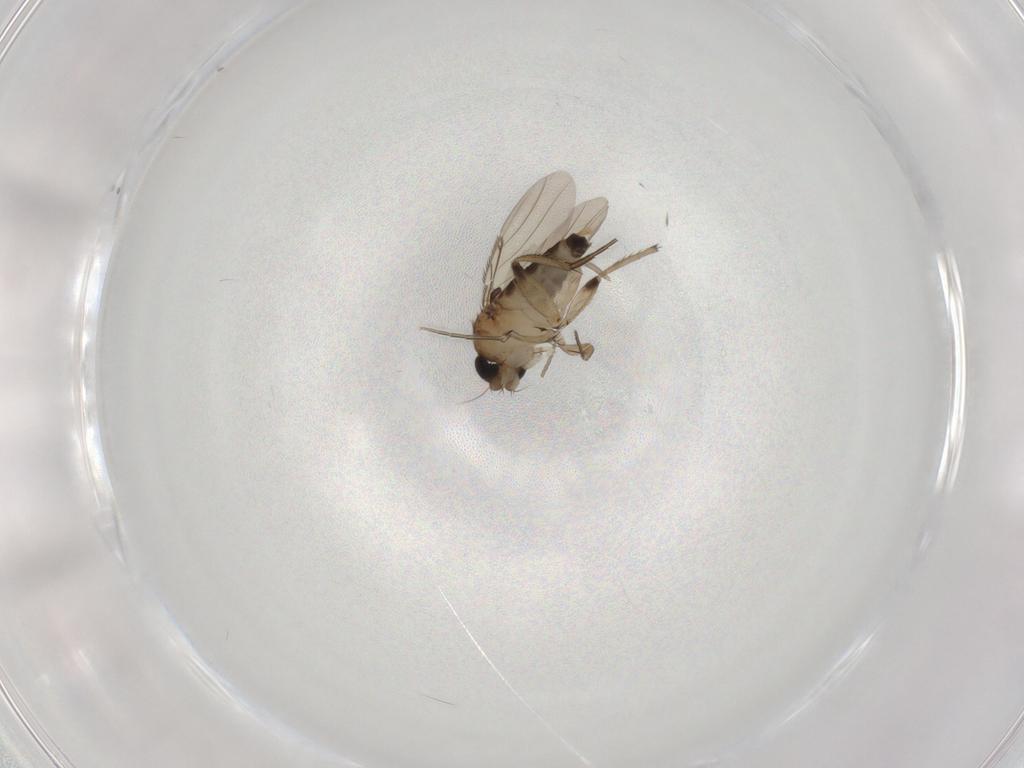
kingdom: Animalia
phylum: Arthropoda
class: Insecta
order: Diptera
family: Phoridae
